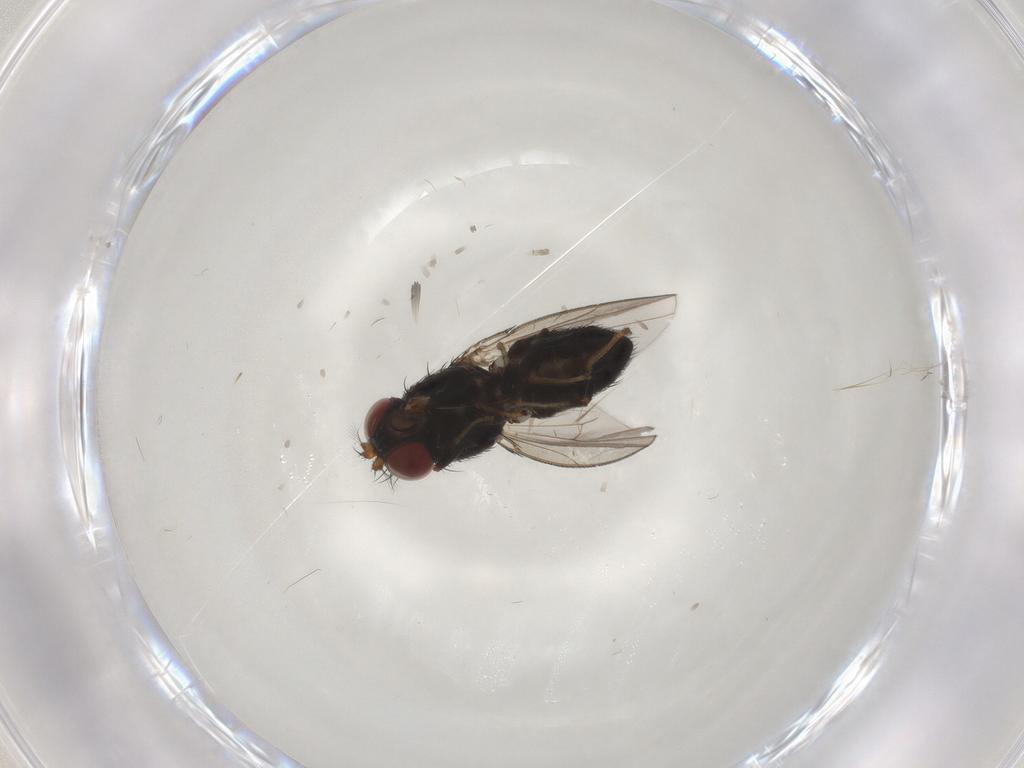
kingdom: Animalia
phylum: Arthropoda
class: Insecta
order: Diptera
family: Ephydridae
